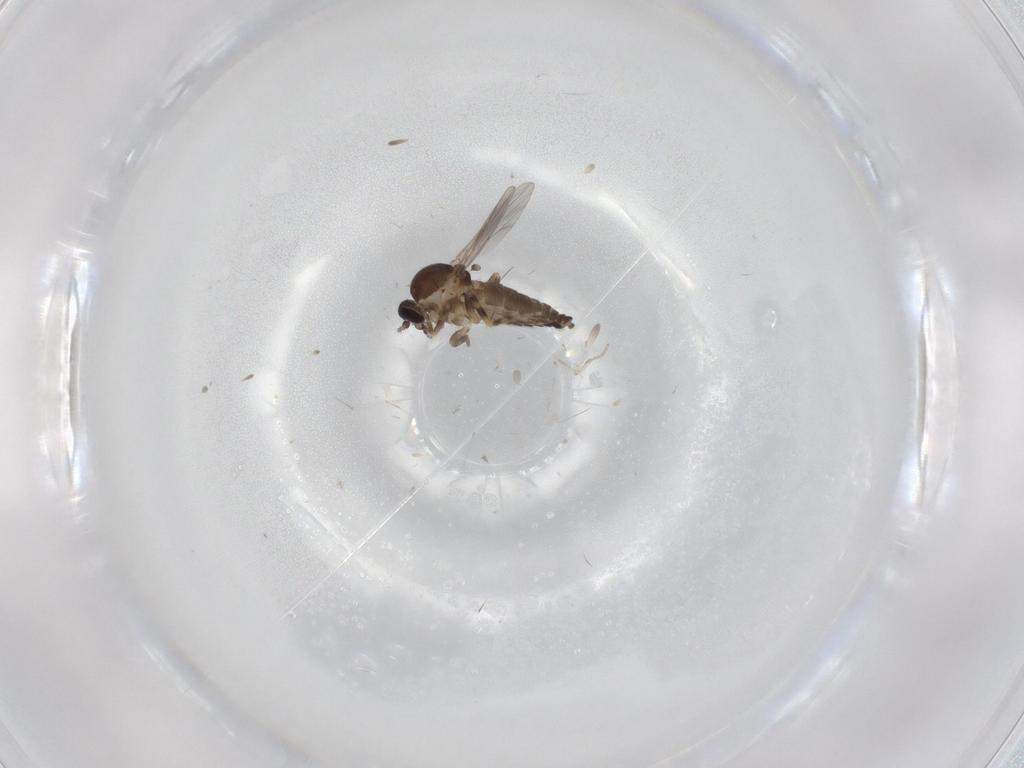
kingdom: Animalia
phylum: Arthropoda
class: Insecta
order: Diptera
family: Ceratopogonidae
